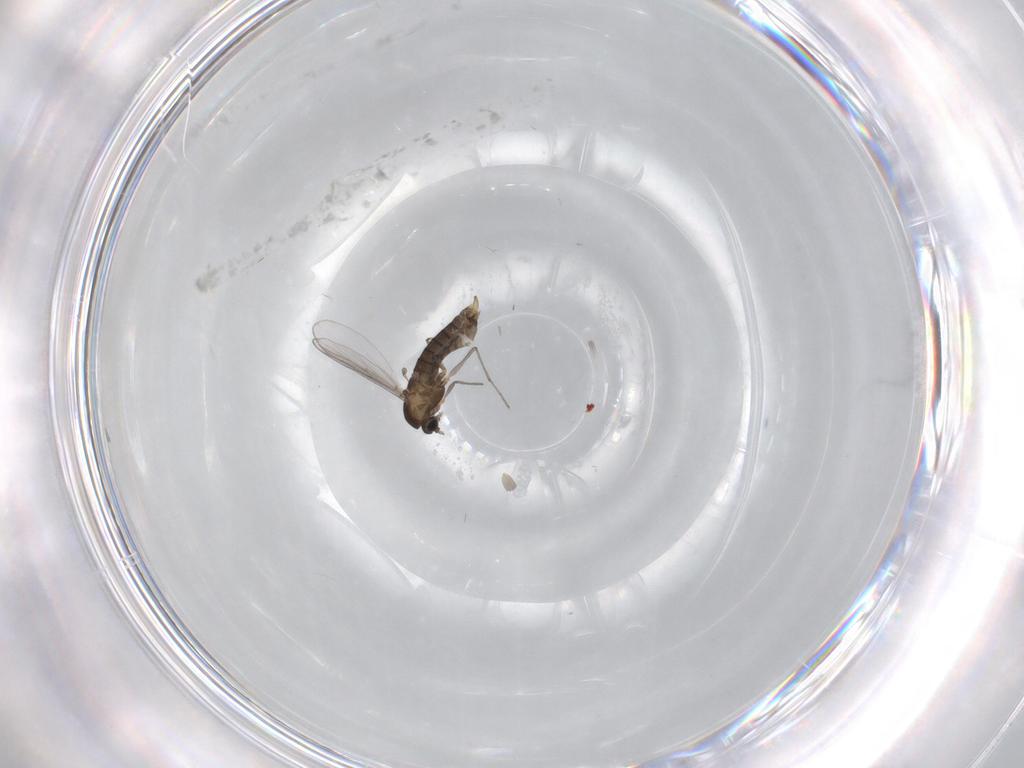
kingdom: Animalia
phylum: Arthropoda
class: Insecta
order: Diptera
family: Chironomidae
